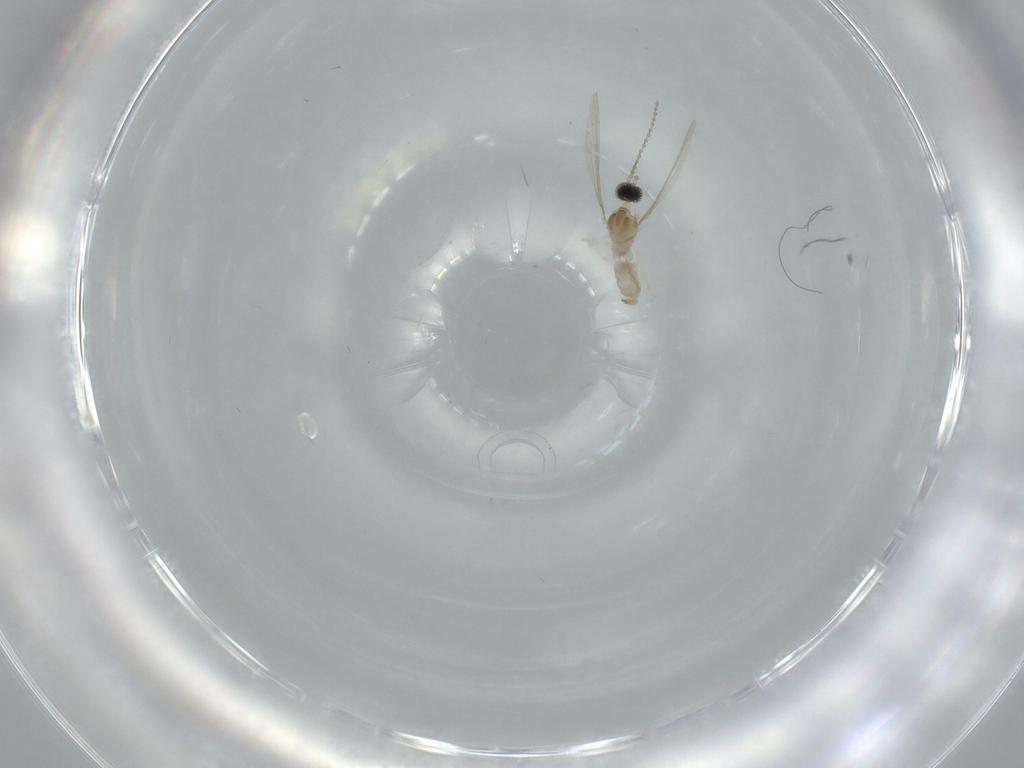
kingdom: Animalia
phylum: Arthropoda
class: Insecta
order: Diptera
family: Cecidomyiidae
